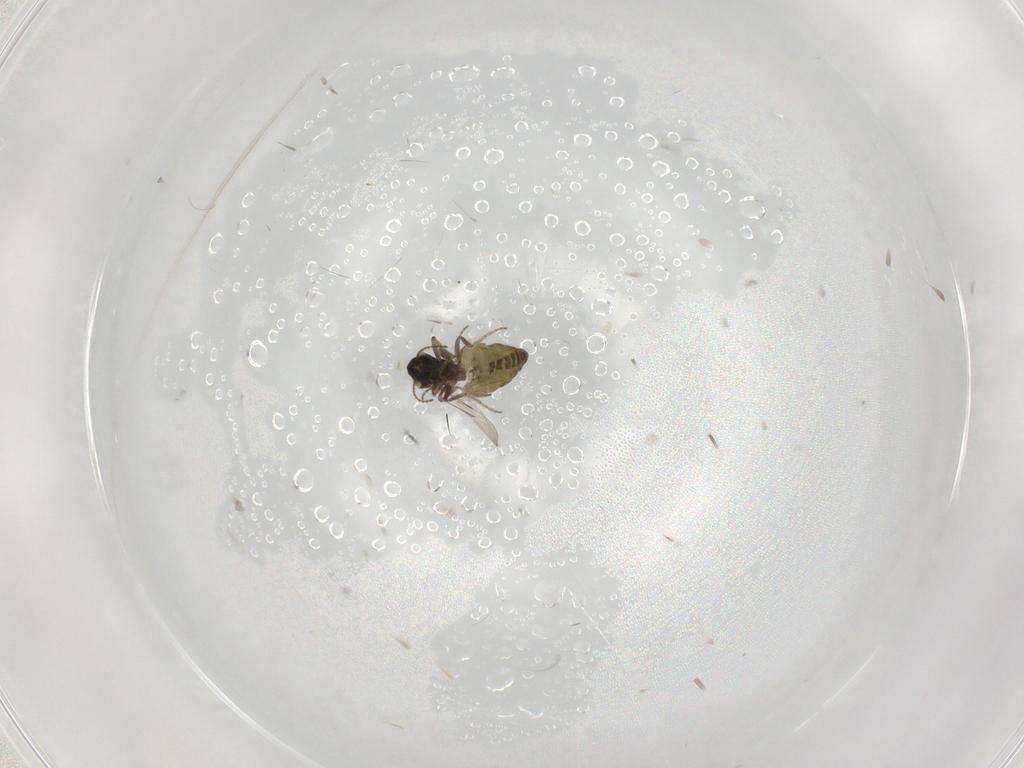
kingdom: Animalia
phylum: Arthropoda
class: Insecta
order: Diptera
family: Ceratopogonidae
